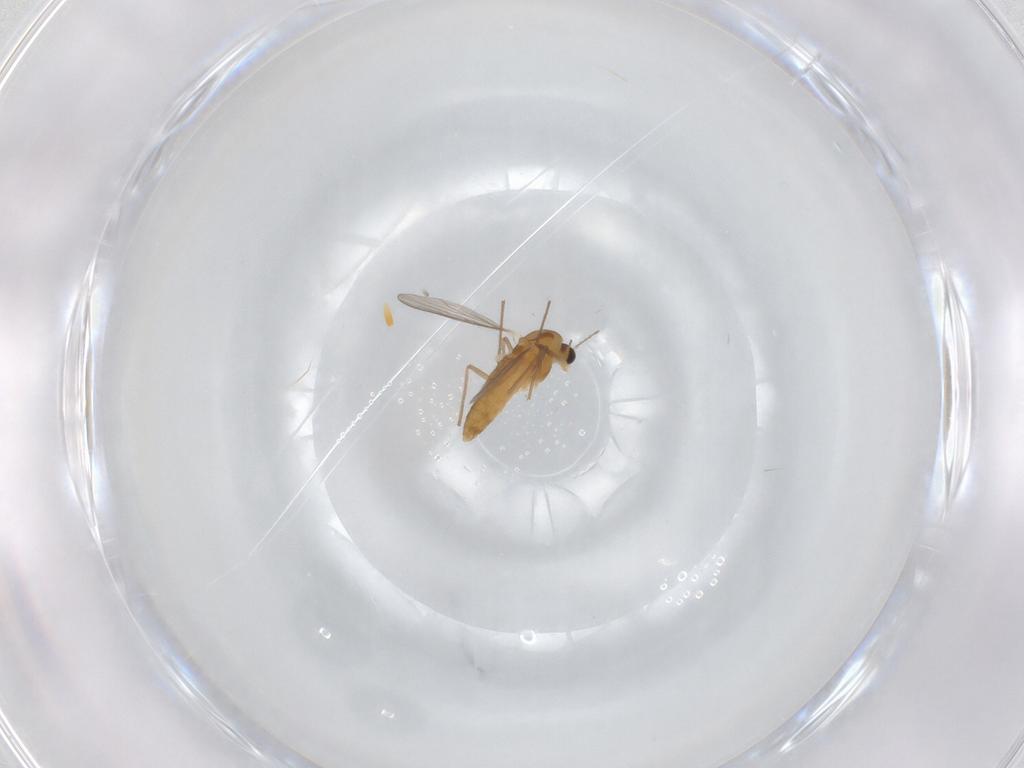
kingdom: Animalia
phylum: Arthropoda
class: Insecta
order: Diptera
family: Chironomidae
